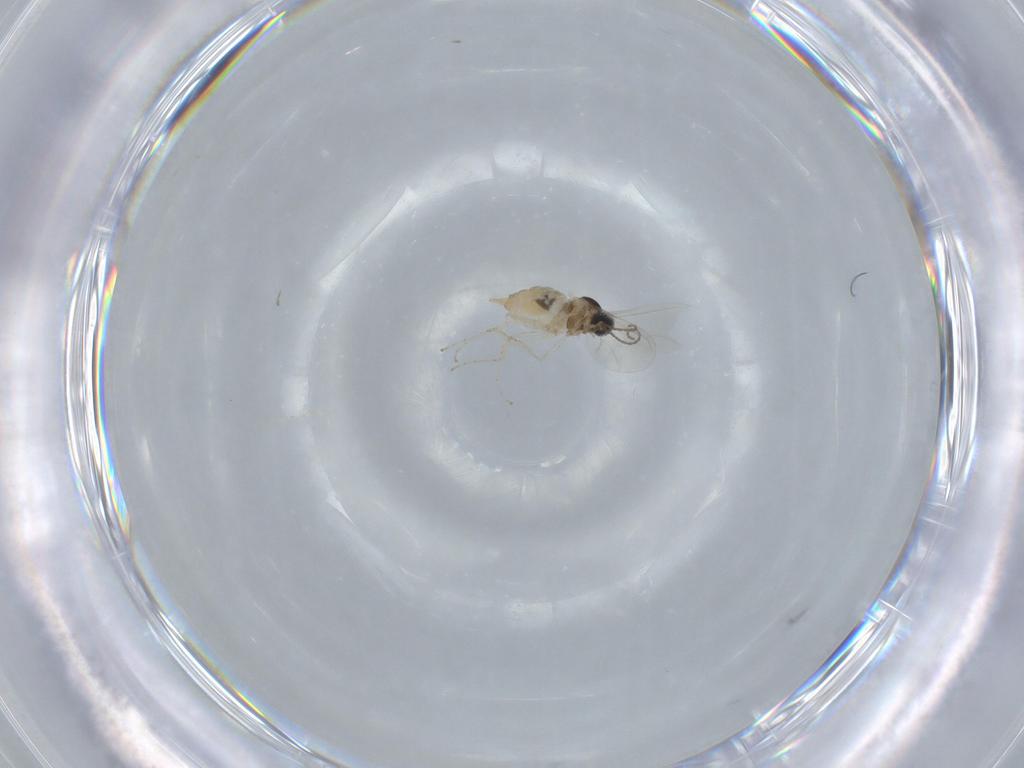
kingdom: Animalia
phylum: Arthropoda
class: Insecta
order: Diptera
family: Cecidomyiidae
